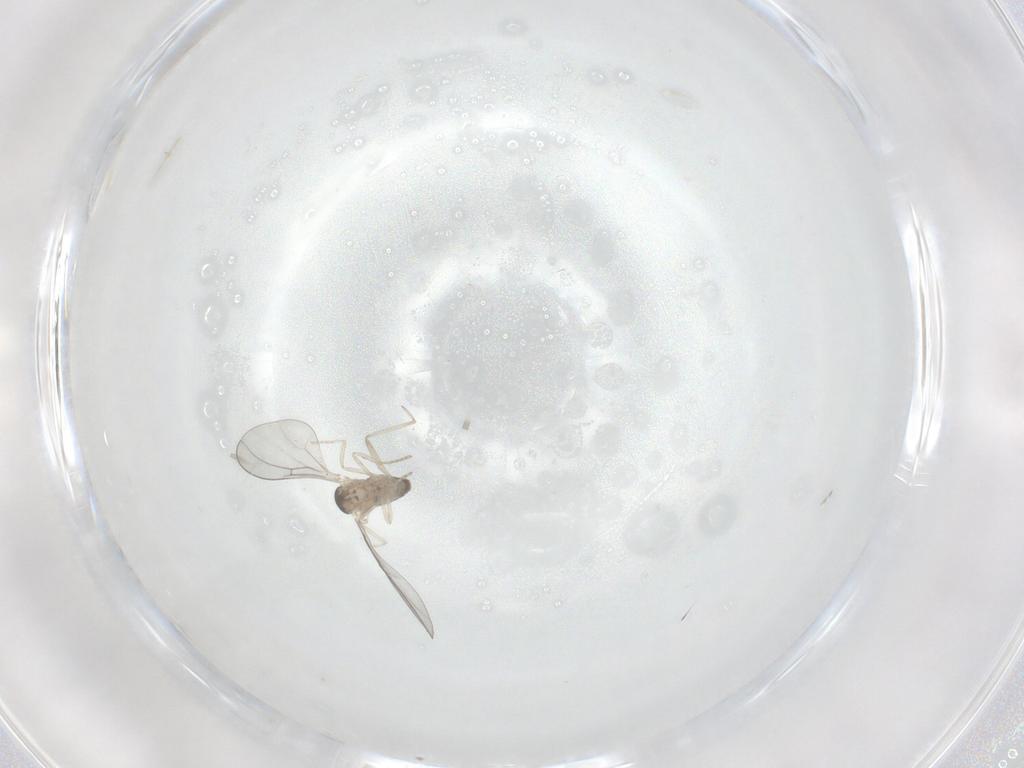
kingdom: Animalia
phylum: Arthropoda
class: Insecta
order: Diptera
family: Cecidomyiidae
